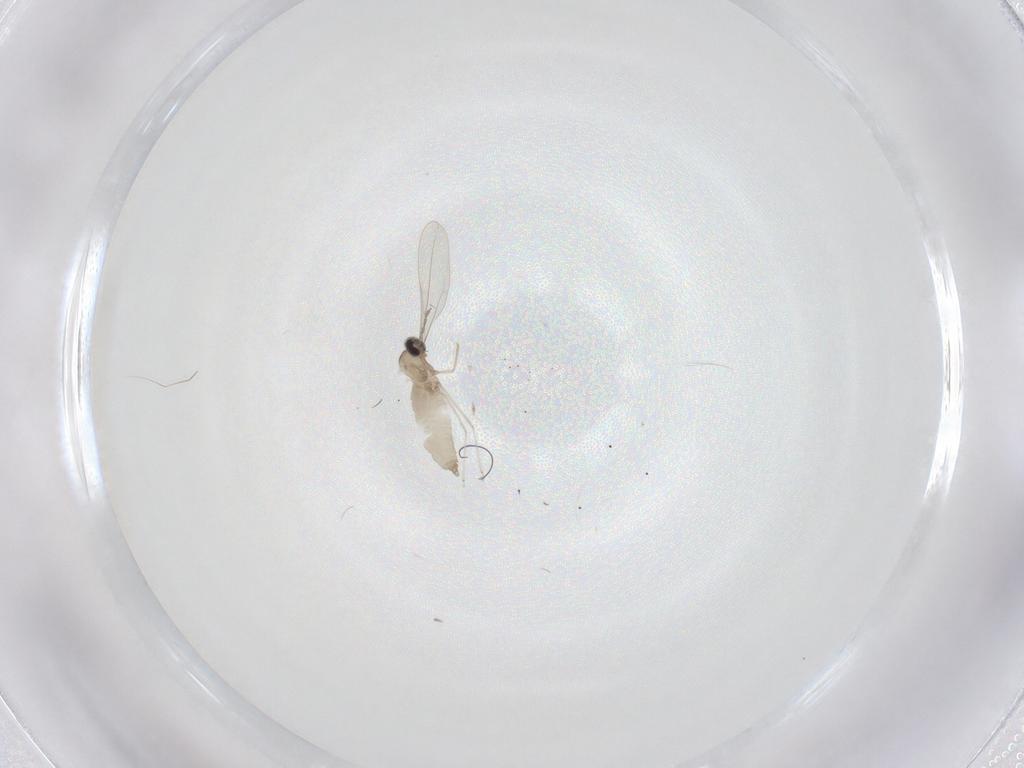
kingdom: Animalia
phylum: Arthropoda
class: Insecta
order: Diptera
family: Cecidomyiidae
